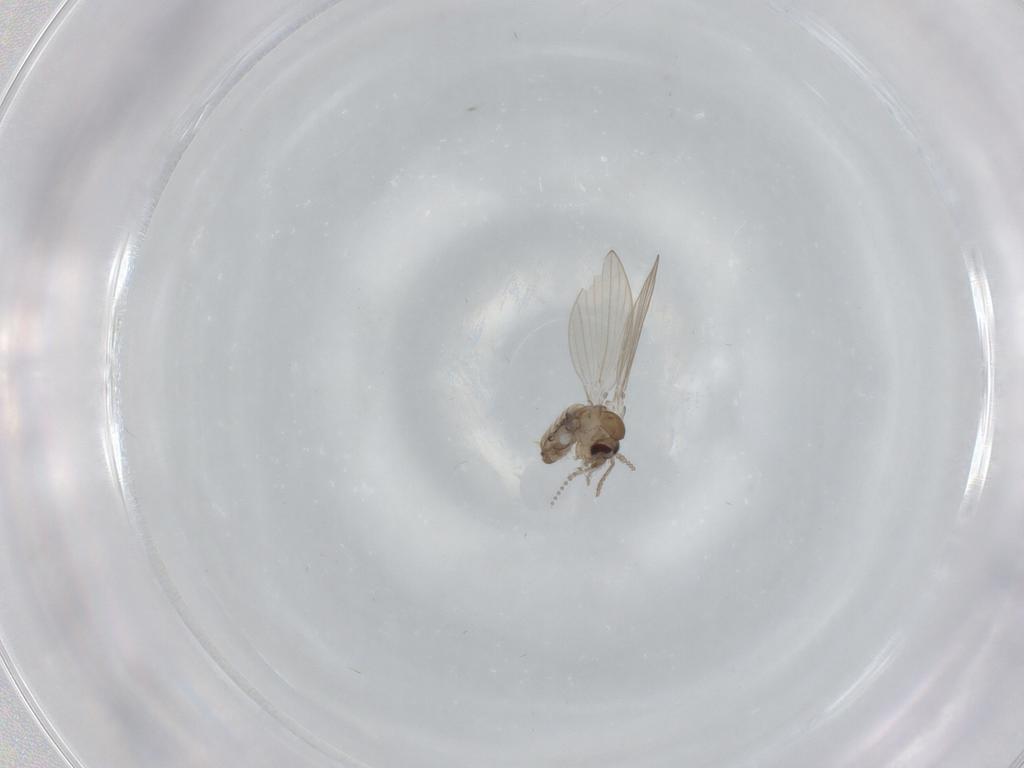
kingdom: Animalia
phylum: Arthropoda
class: Insecta
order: Diptera
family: Psychodidae
